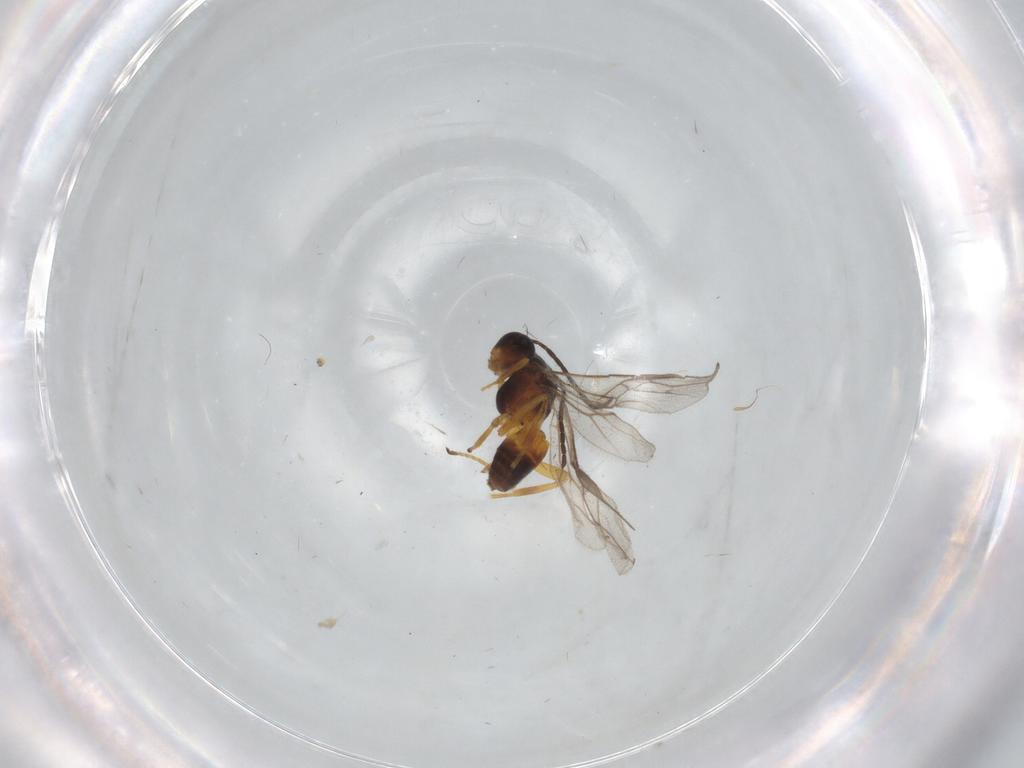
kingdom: Animalia
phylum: Arthropoda
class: Insecta
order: Hymenoptera
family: Braconidae
